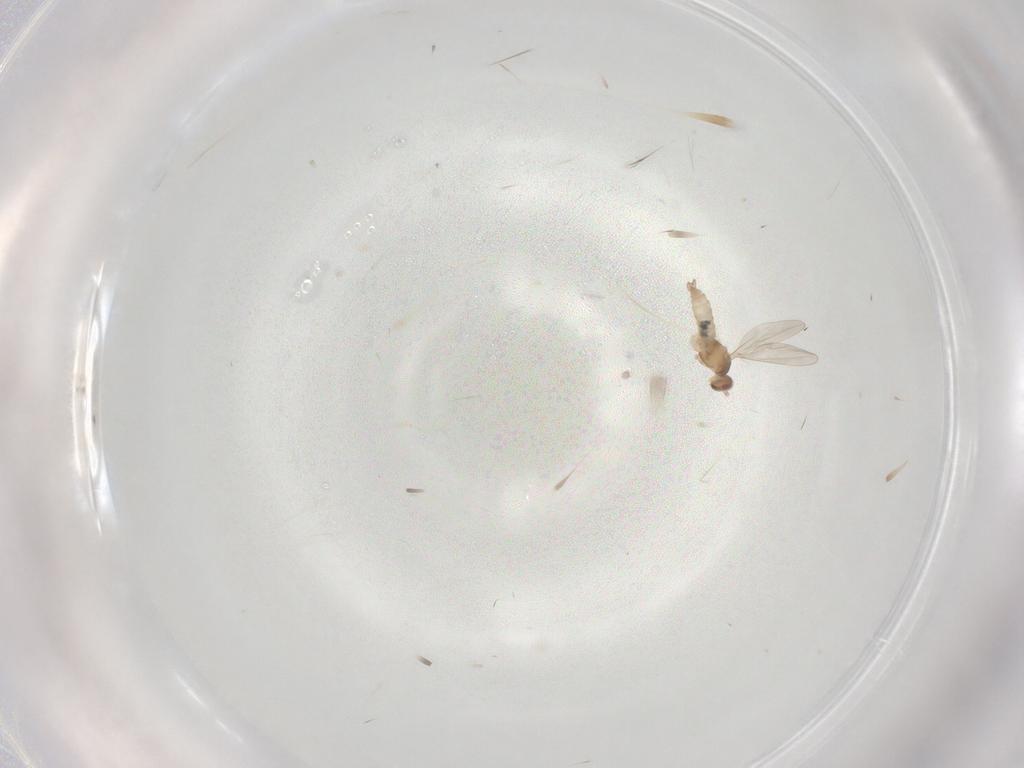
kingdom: Animalia
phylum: Arthropoda
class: Insecta
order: Diptera
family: Cecidomyiidae
